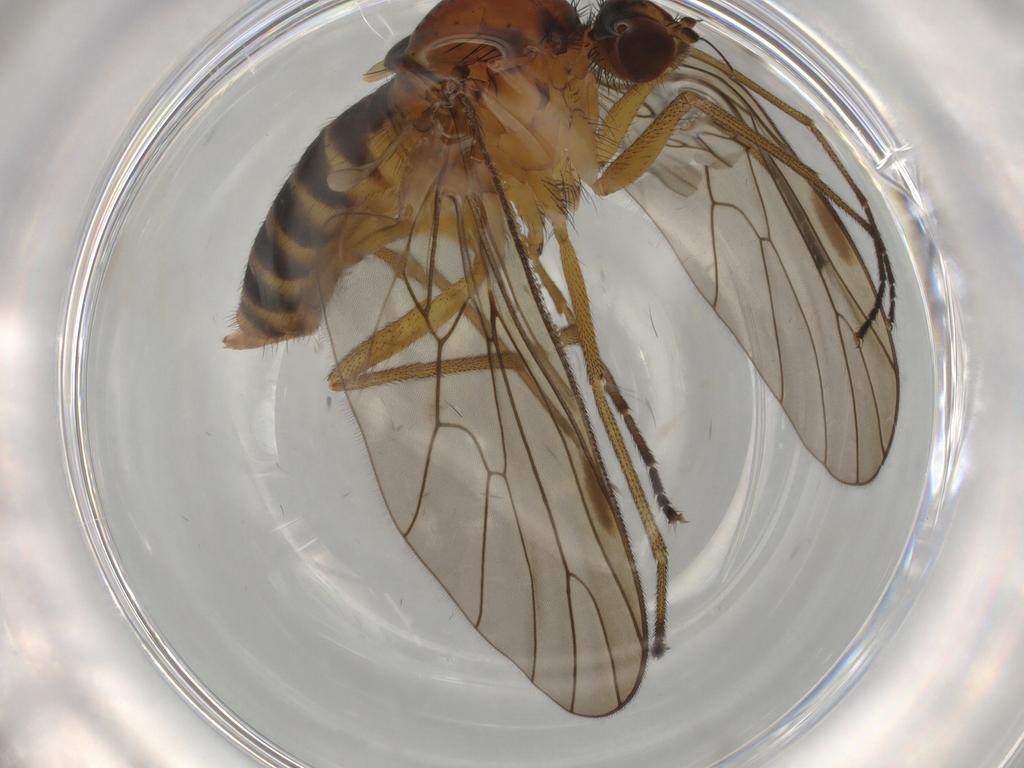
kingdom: Animalia
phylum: Arthropoda
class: Insecta
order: Diptera
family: Brachystomatidae
